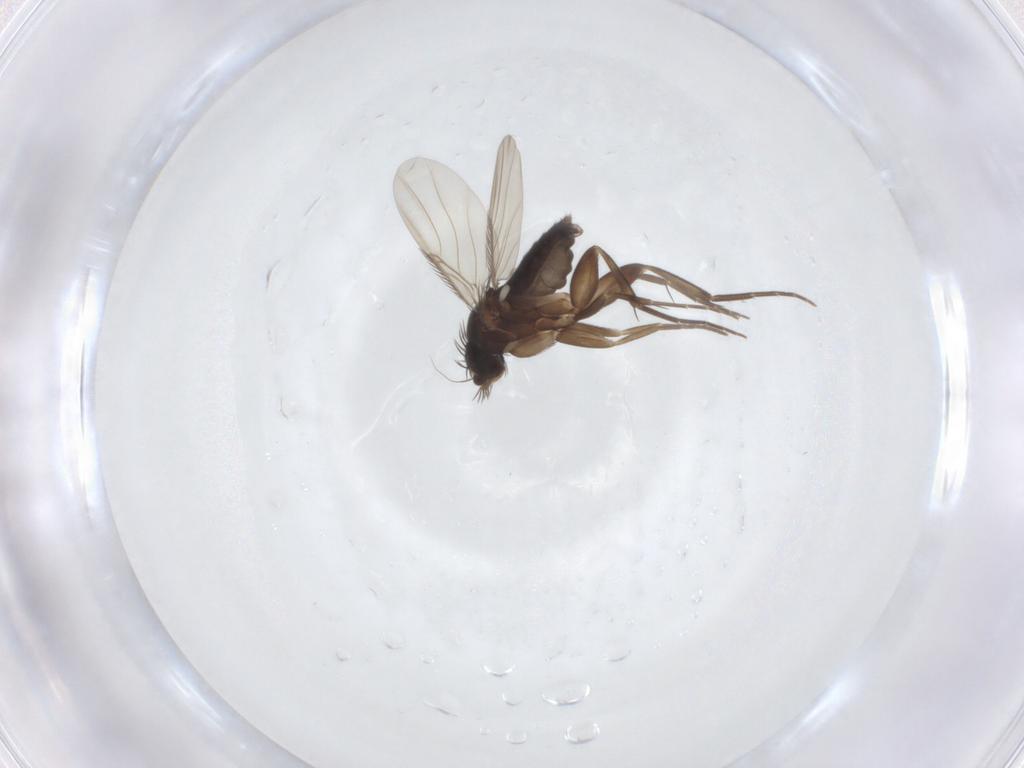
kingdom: Animalia
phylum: Arthropoda
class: Insecta
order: Diptera
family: Phoridae
